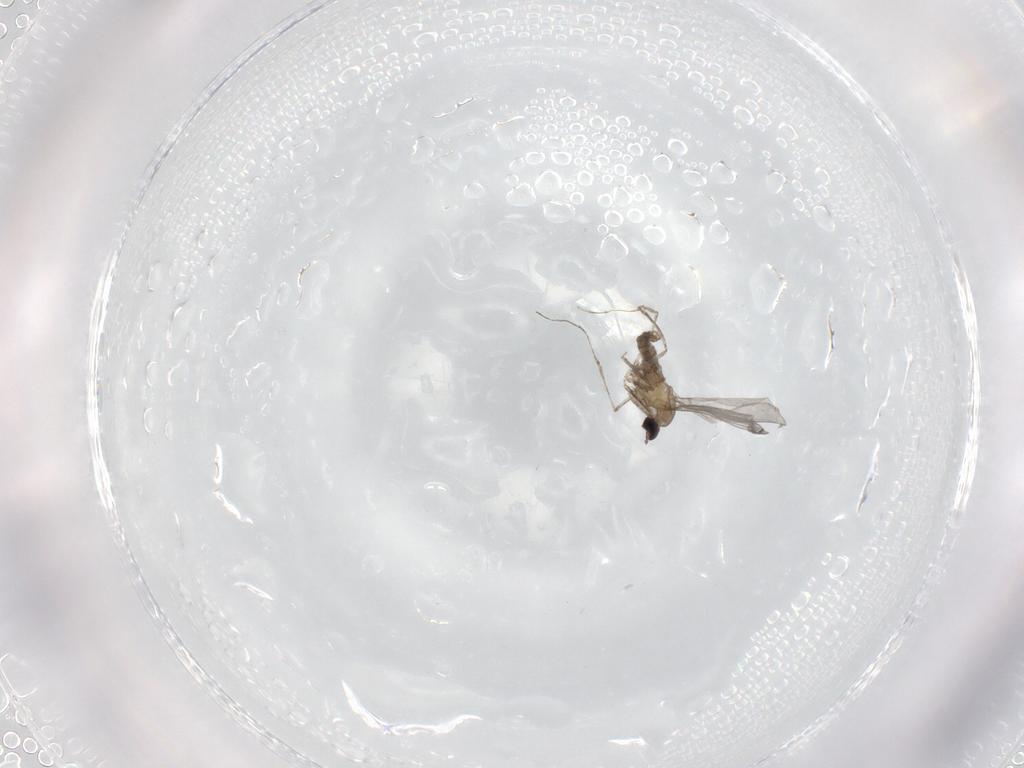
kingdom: Animalia
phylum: Arthropoda
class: Insecta
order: Diptera
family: Cecidomyiidae
